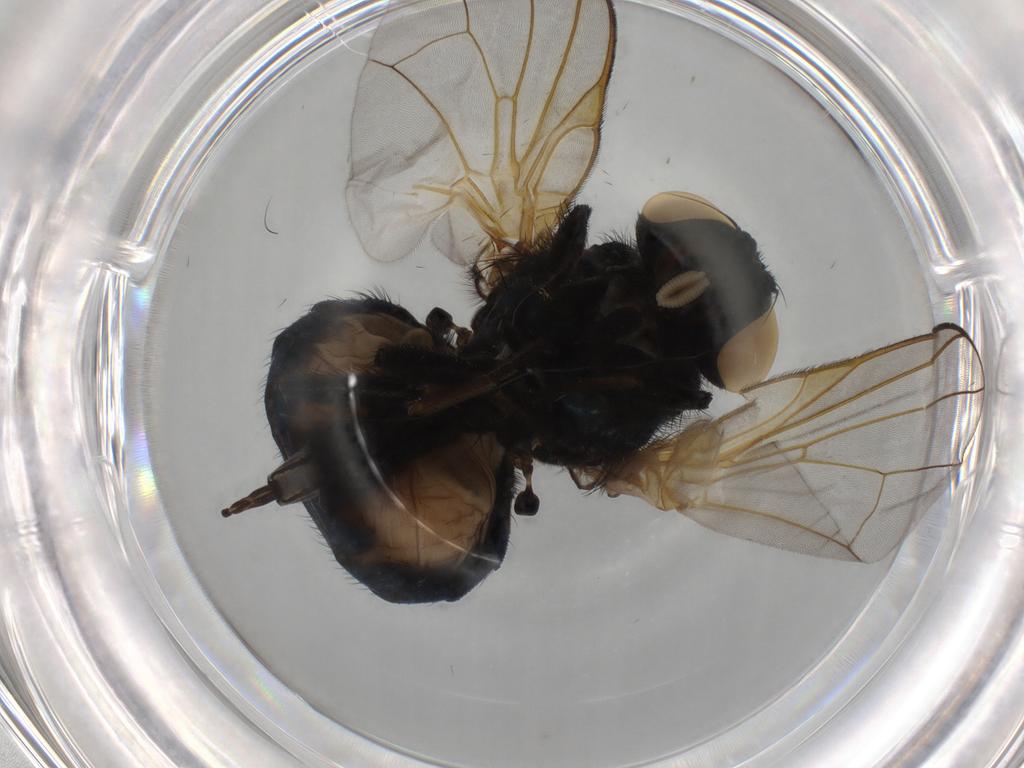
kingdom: Animalia
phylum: Arthropoda
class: Insecta
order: Diptera
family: Lonchaeidae
